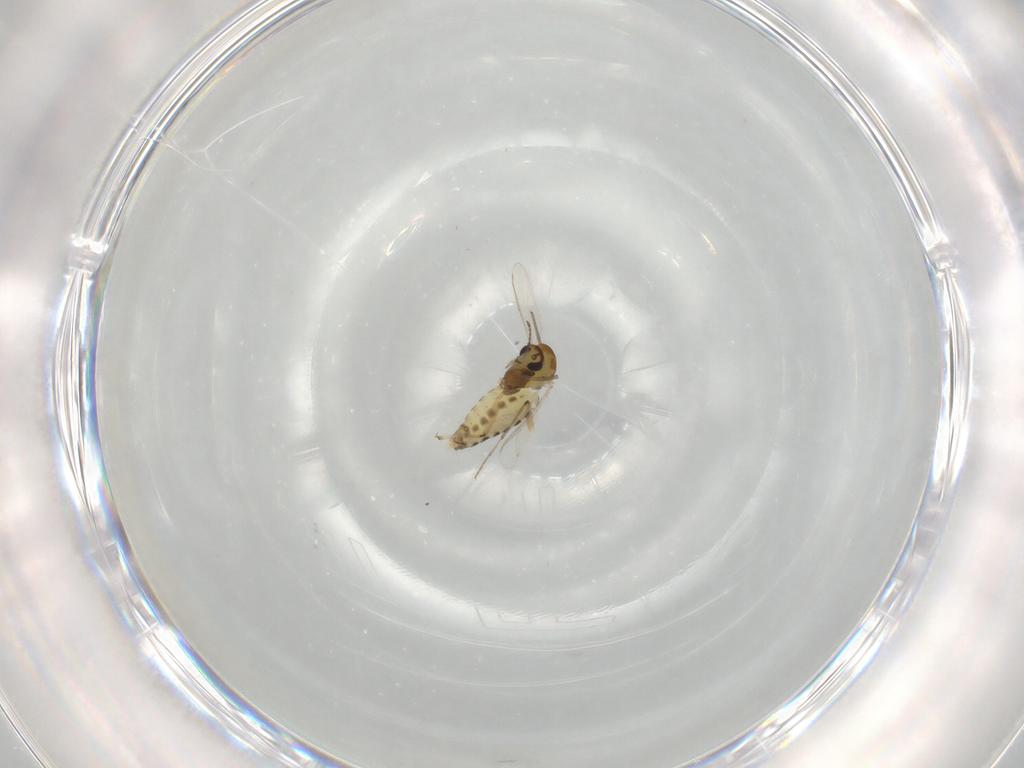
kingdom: Animalia
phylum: Arthropoda
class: Insecta
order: Diptera
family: Chironomidae
